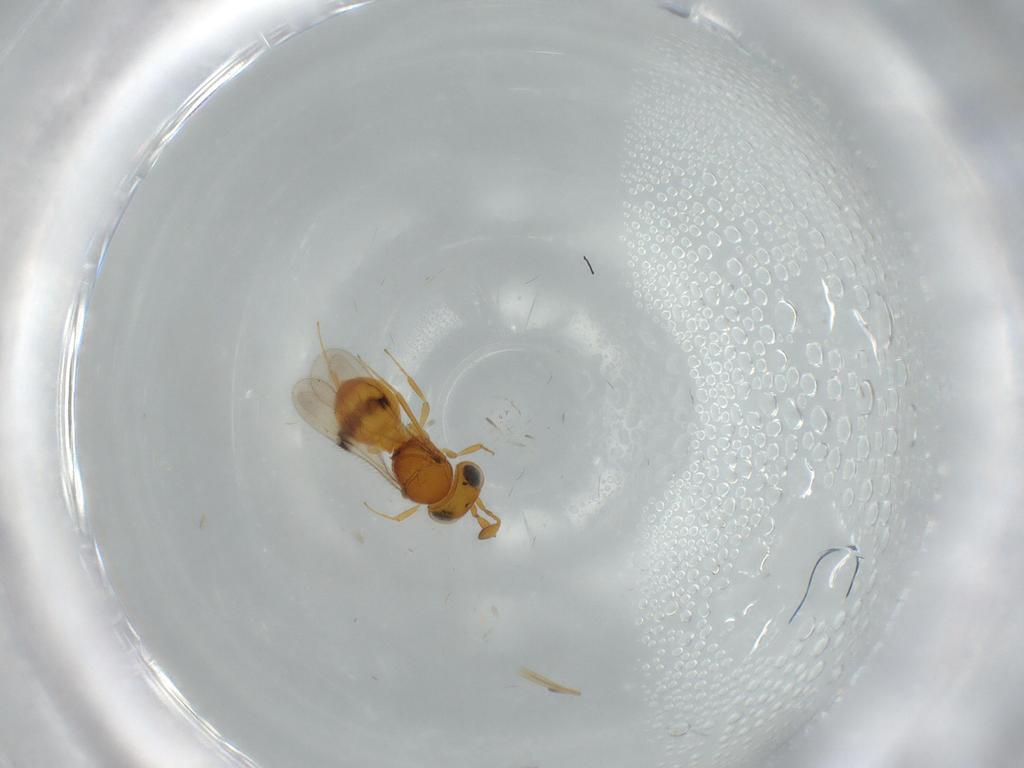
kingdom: Animalia
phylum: Arthropoda
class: Insecta
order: Hymenoptera
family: Scelionidae
